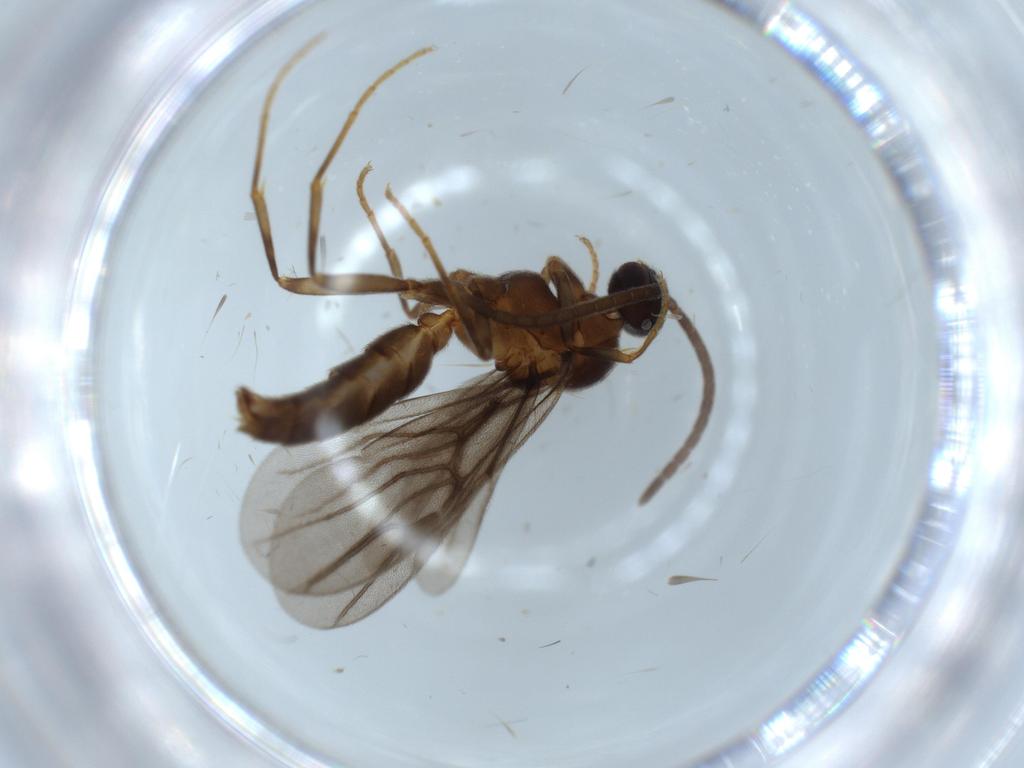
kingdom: Animalia
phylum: Arthropoda
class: Insecta
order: Hymenoptera
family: Formicidae
